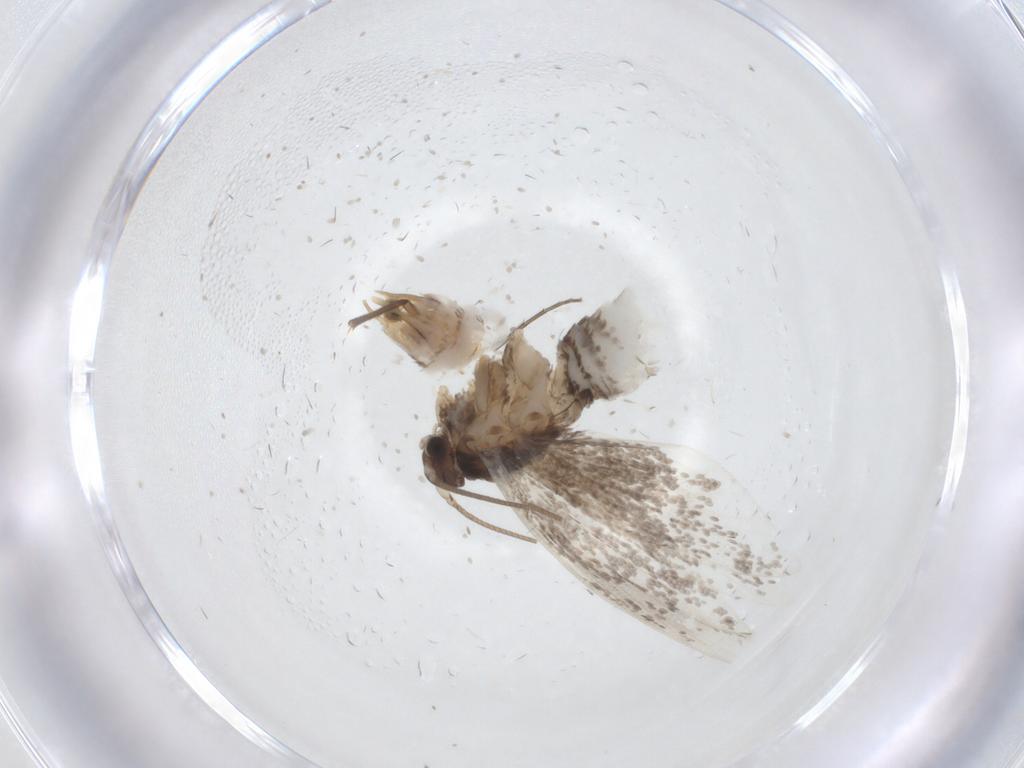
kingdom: Animalia
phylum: Arthropoda
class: Insecta
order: Lepidoptera
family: Tineidae
